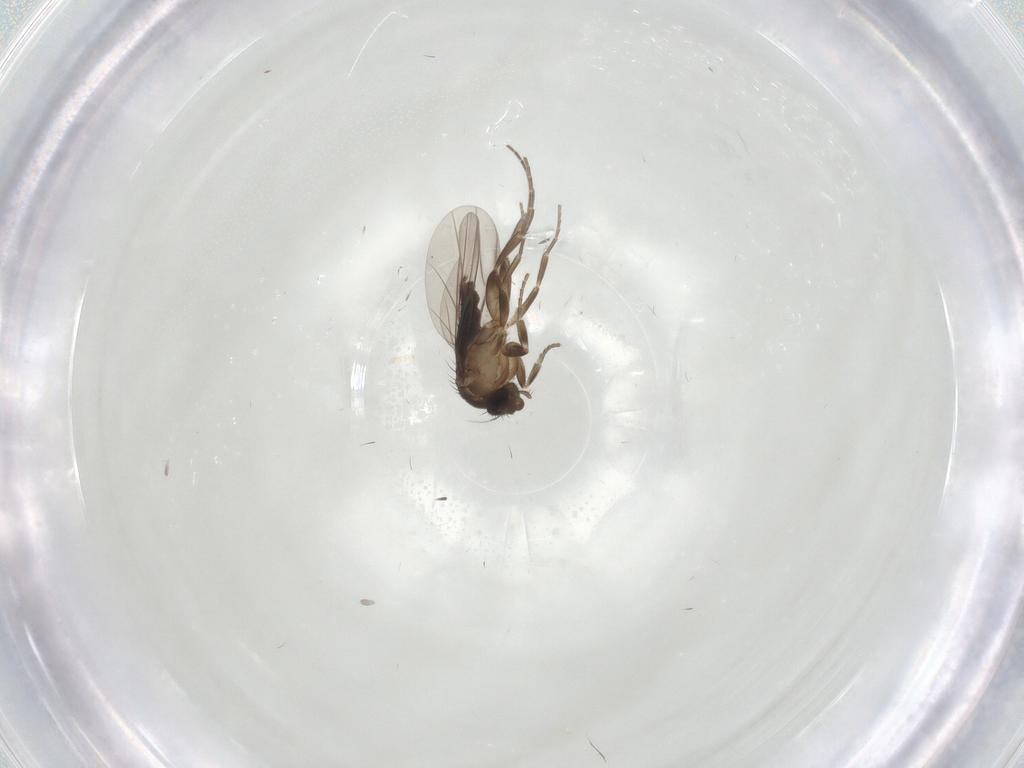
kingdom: Animalia
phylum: Arthropoda
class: Insecta
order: Diptera
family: Phoridae
